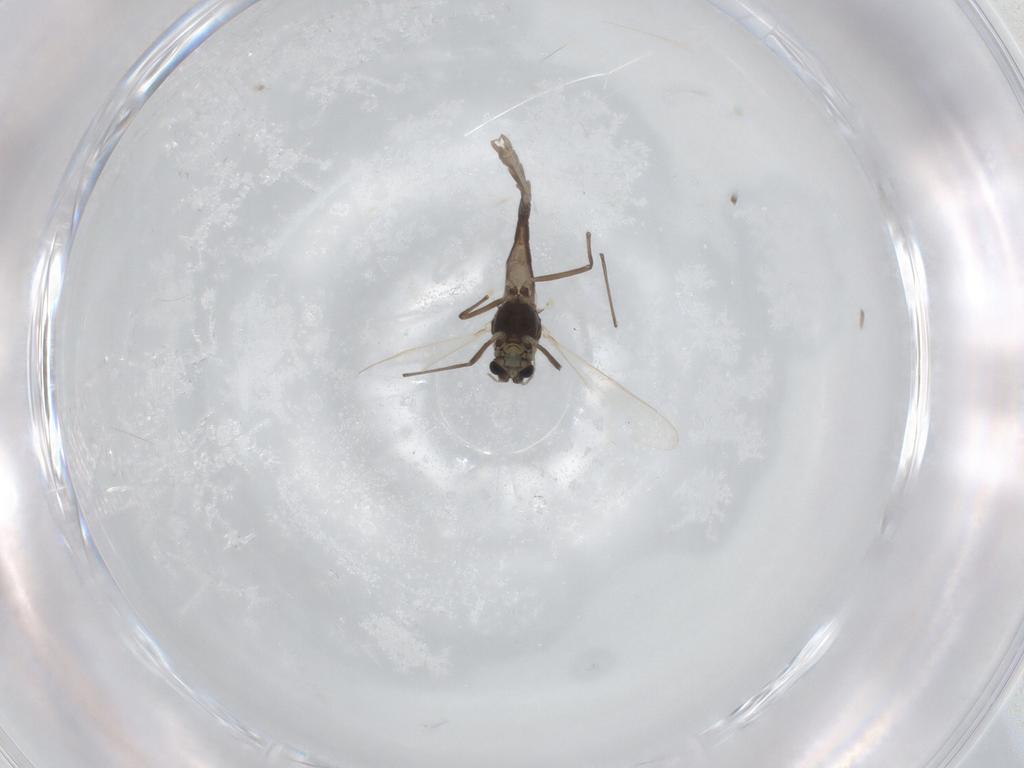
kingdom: Animalia
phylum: Arthropoda
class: Insecta
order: Diptera
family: Chironomidae
